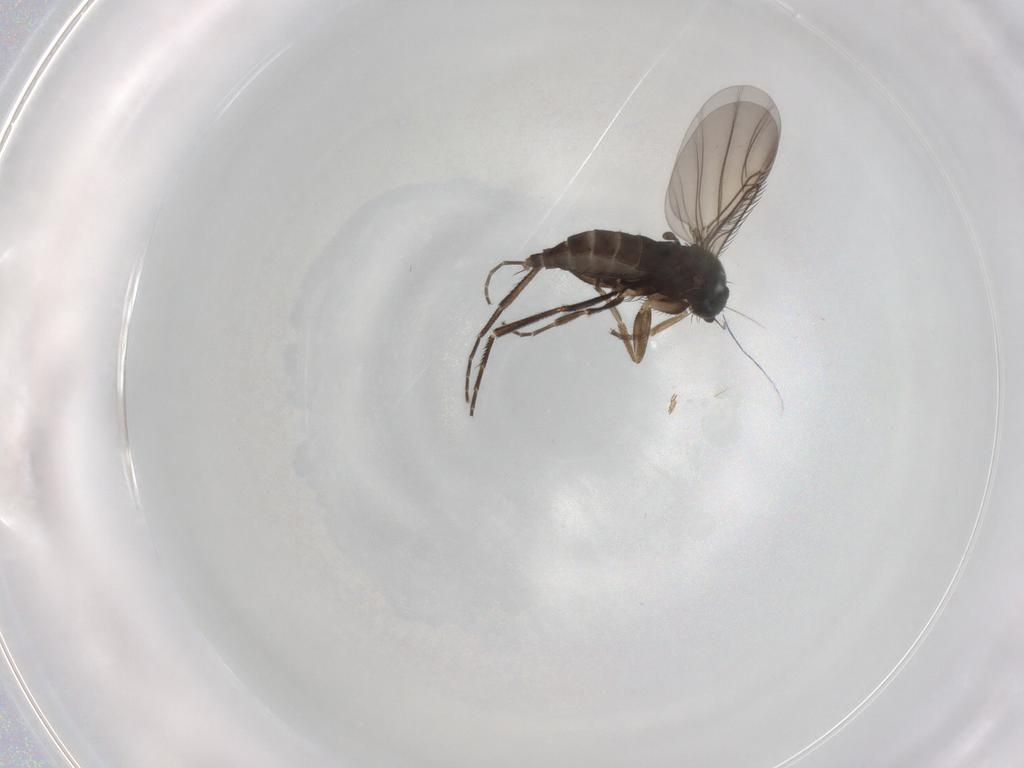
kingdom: Animalia
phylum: Arthropoda
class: Insecta
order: Diptera
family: Phoridae
